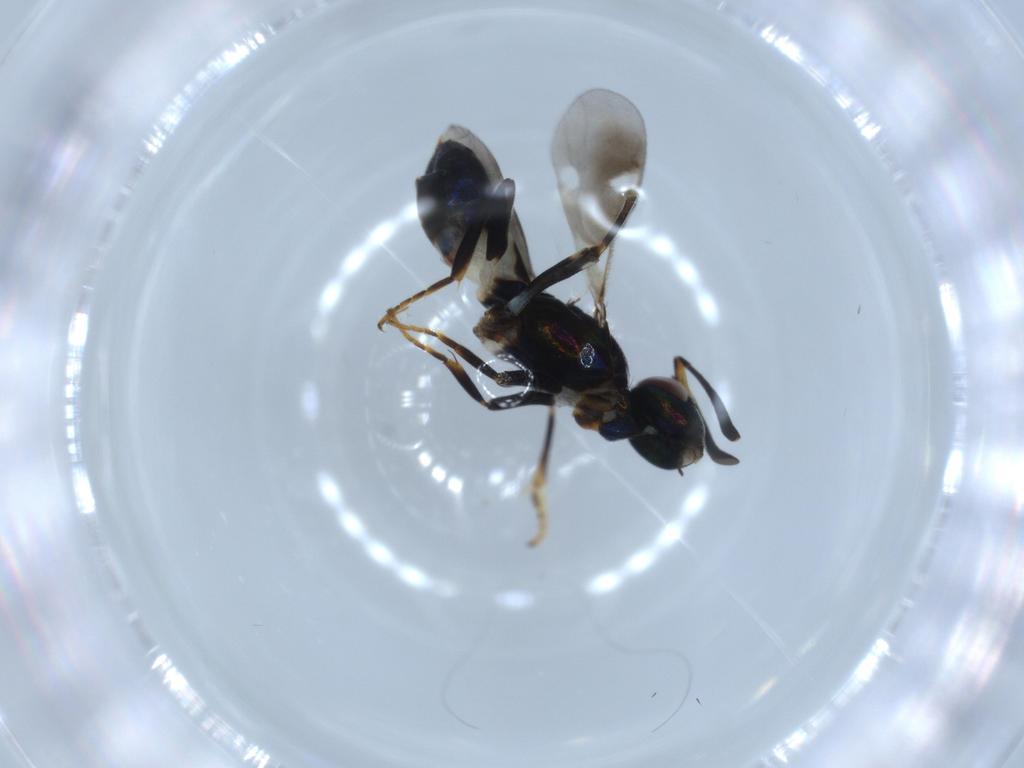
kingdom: Animalia
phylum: Arthropoda
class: Insecta
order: Hymenoptera
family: Eupelmidae
